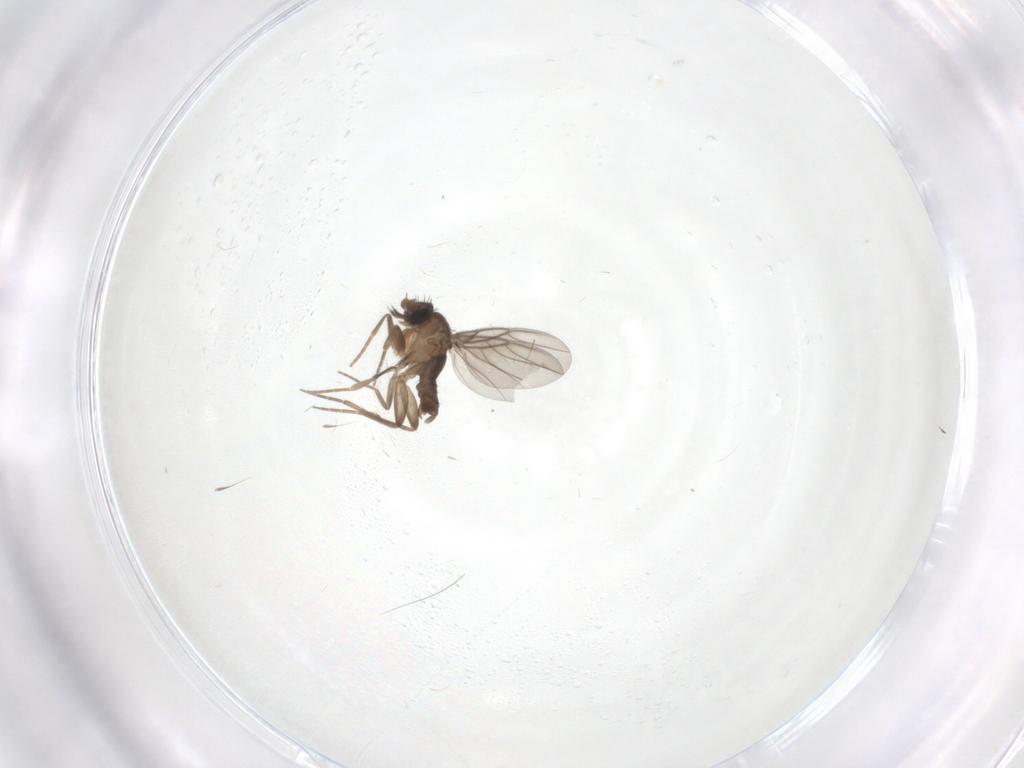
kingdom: Animalia
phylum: Arthropoda
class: Insecta
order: Diptera
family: Phoridae
